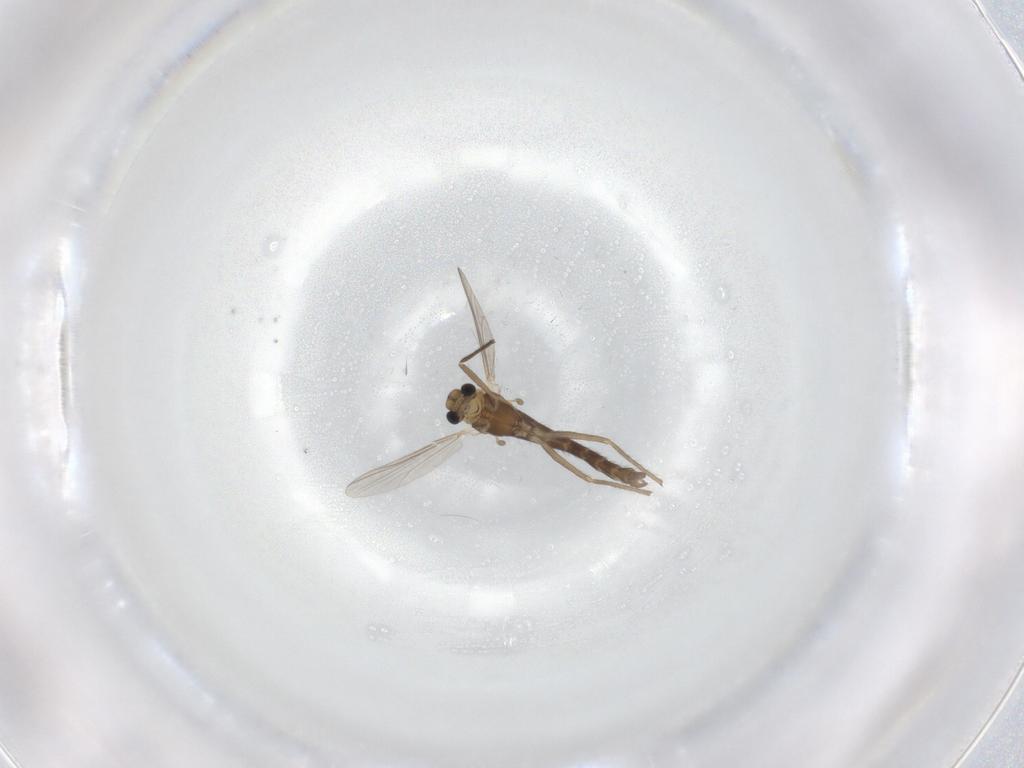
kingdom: Animalia
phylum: Arthropoda
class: Insecta
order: Diptera
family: Chironomidae
